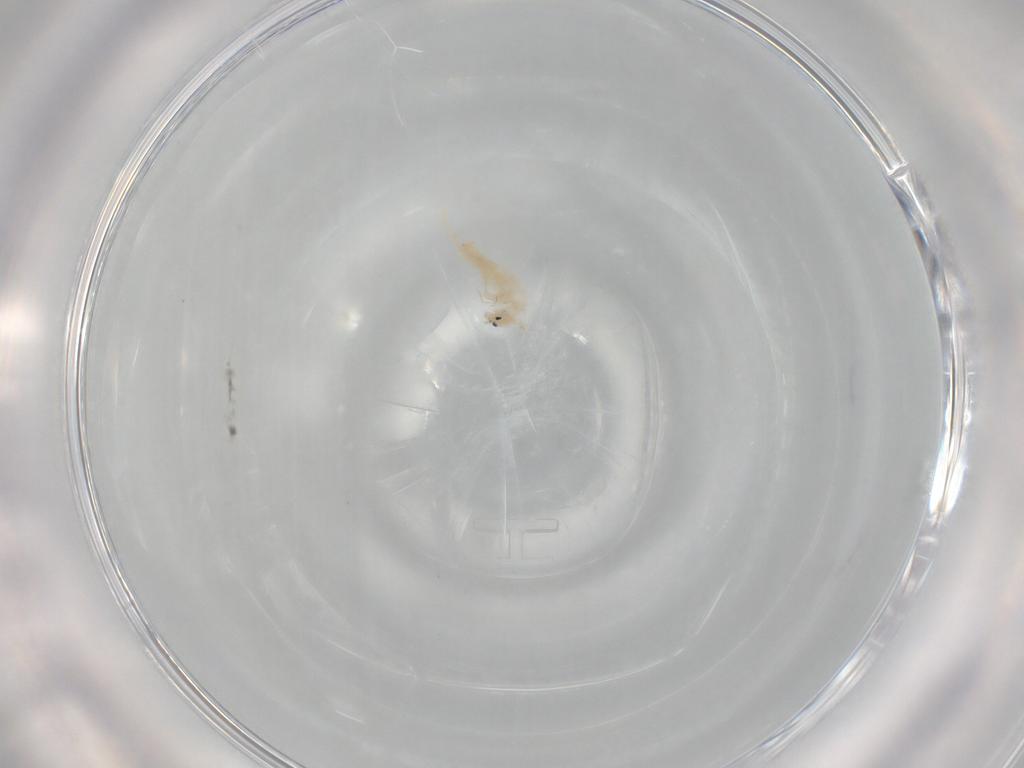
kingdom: Animalia
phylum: Arthropoda
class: Collembola
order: Entomobryomorpha
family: Entomobryidae
